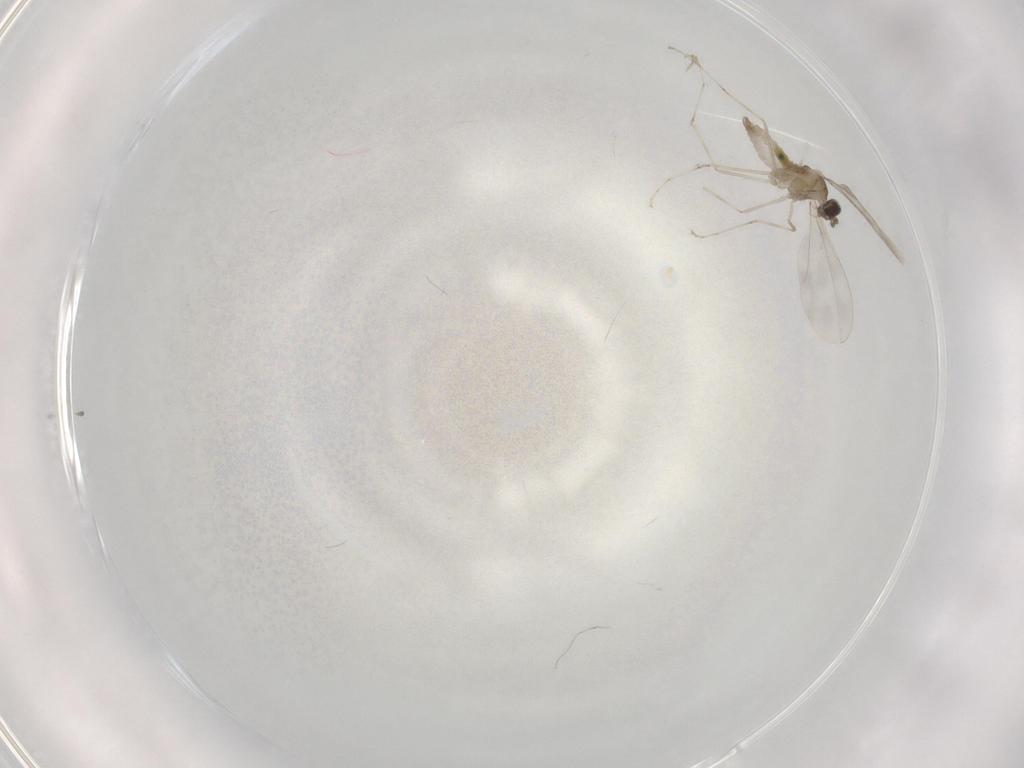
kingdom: Animalia
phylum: Arthropoda
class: Insecta
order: Diptera
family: Cecidomyiidae
